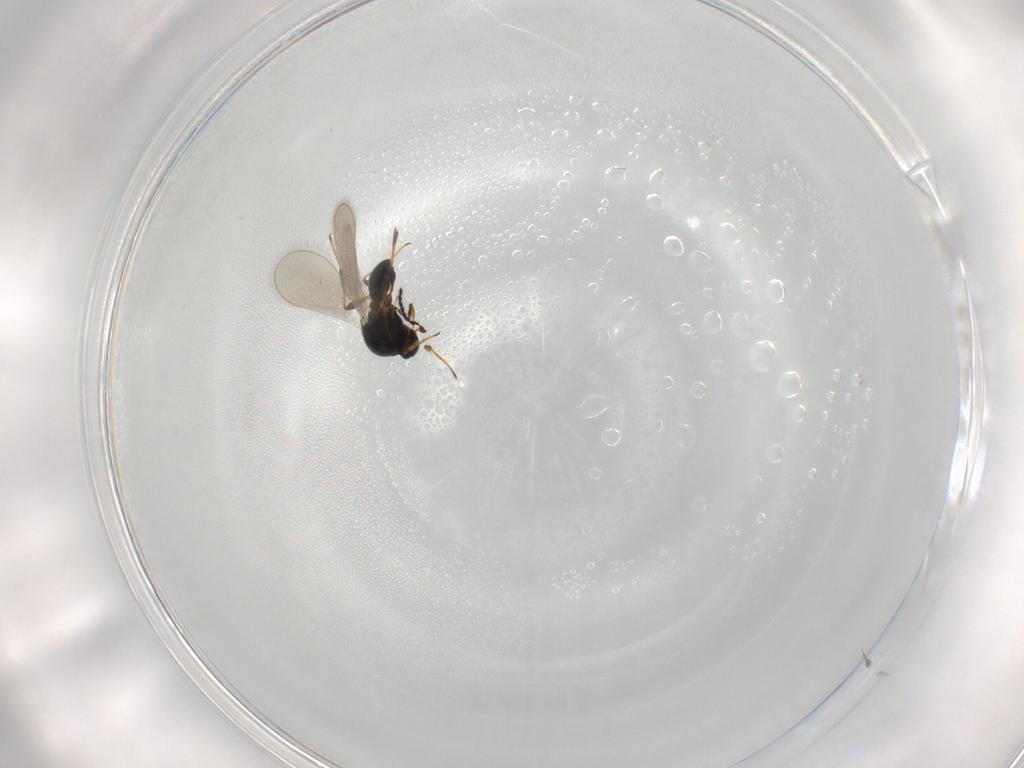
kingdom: Animalia
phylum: Arthropoda
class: Insecta
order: Hymenoptera
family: Platygastridae
